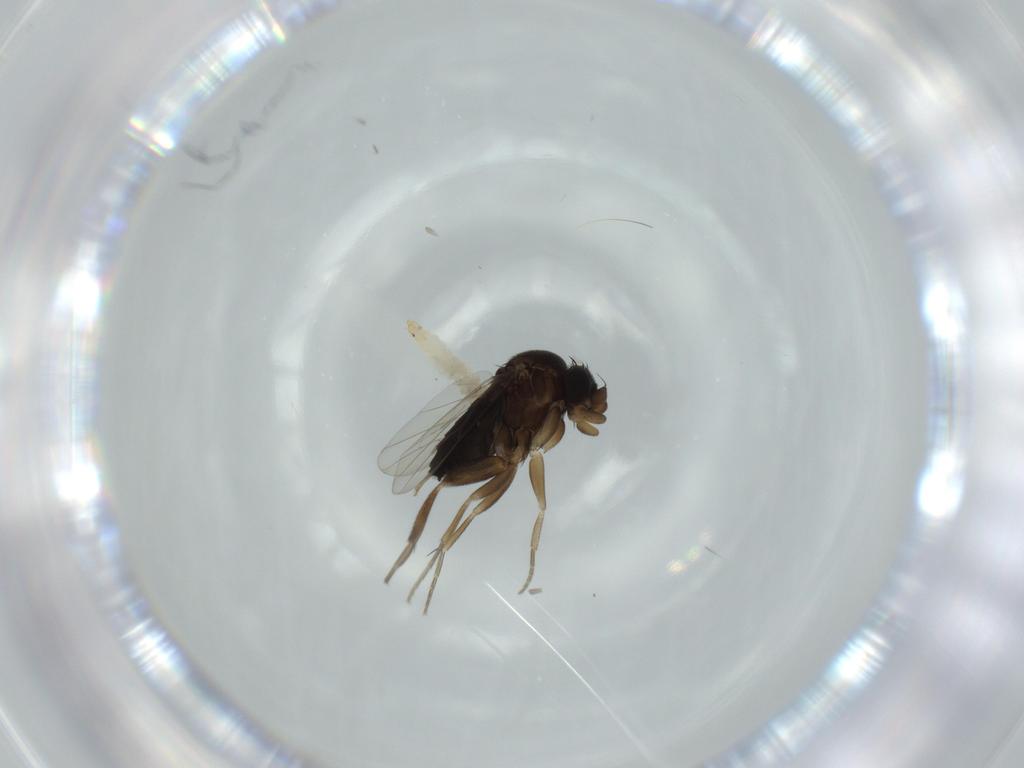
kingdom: Animalia
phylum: Arthropoda
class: Insecta
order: Diptera
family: Phoridae
